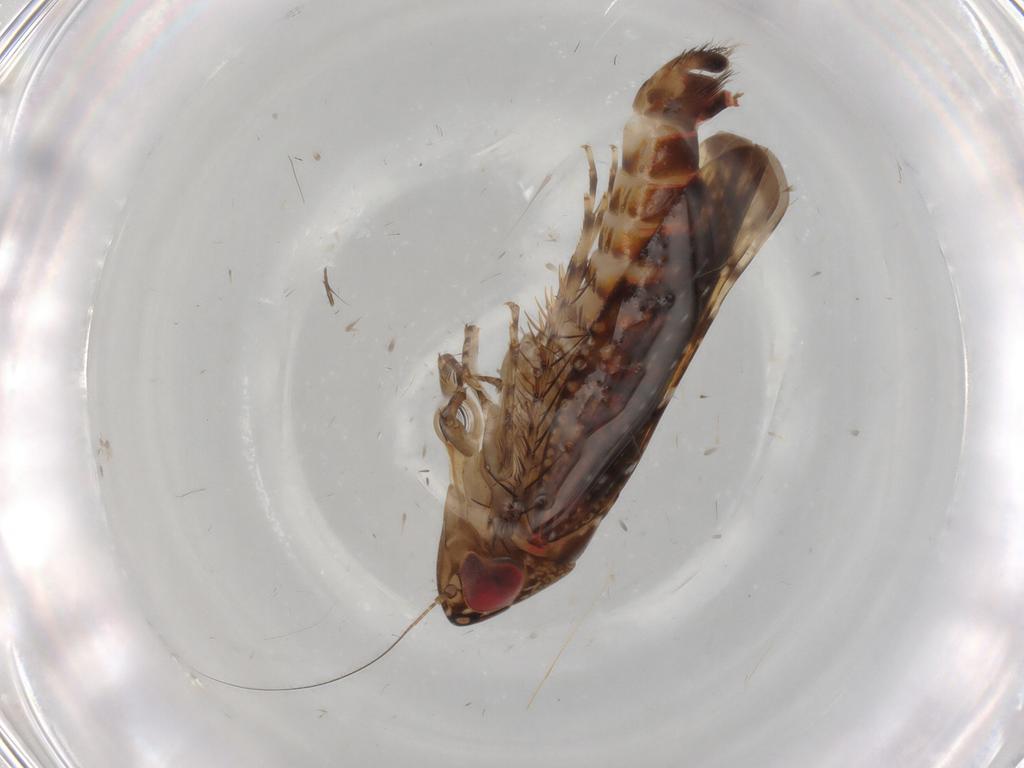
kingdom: Animalia
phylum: Arthropoda
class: Insecta
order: Hemiptera
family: Cicadellidae
